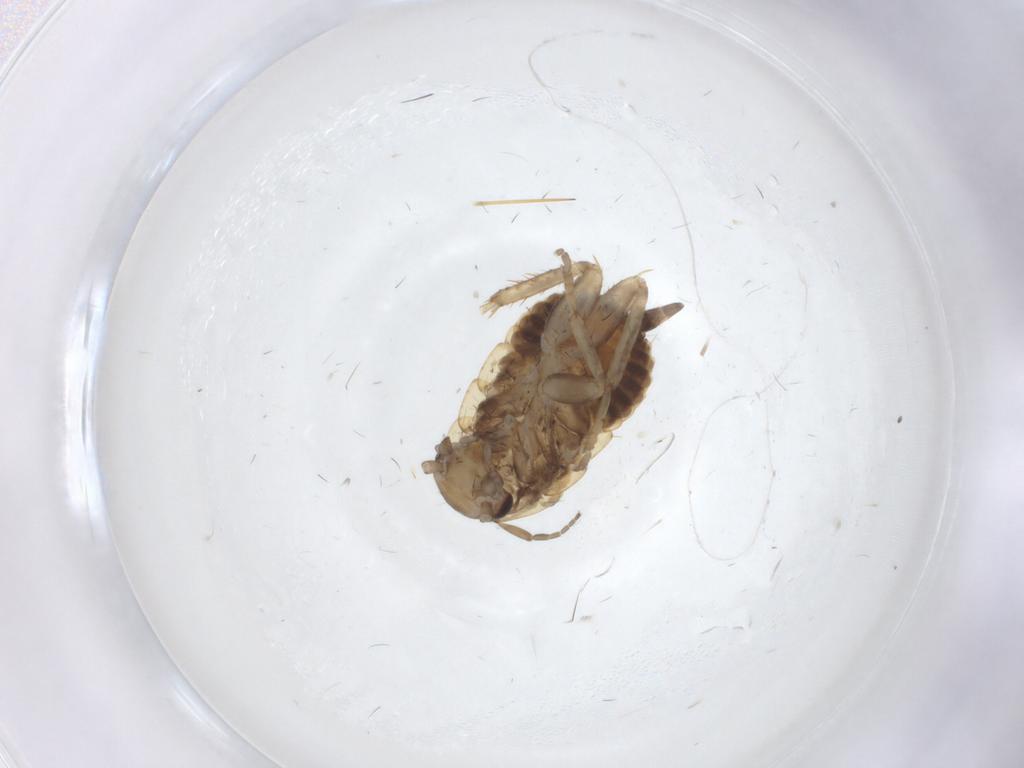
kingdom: Animalia
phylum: Arthropoda
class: Insecta
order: Blattodea
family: Ectobiidae
